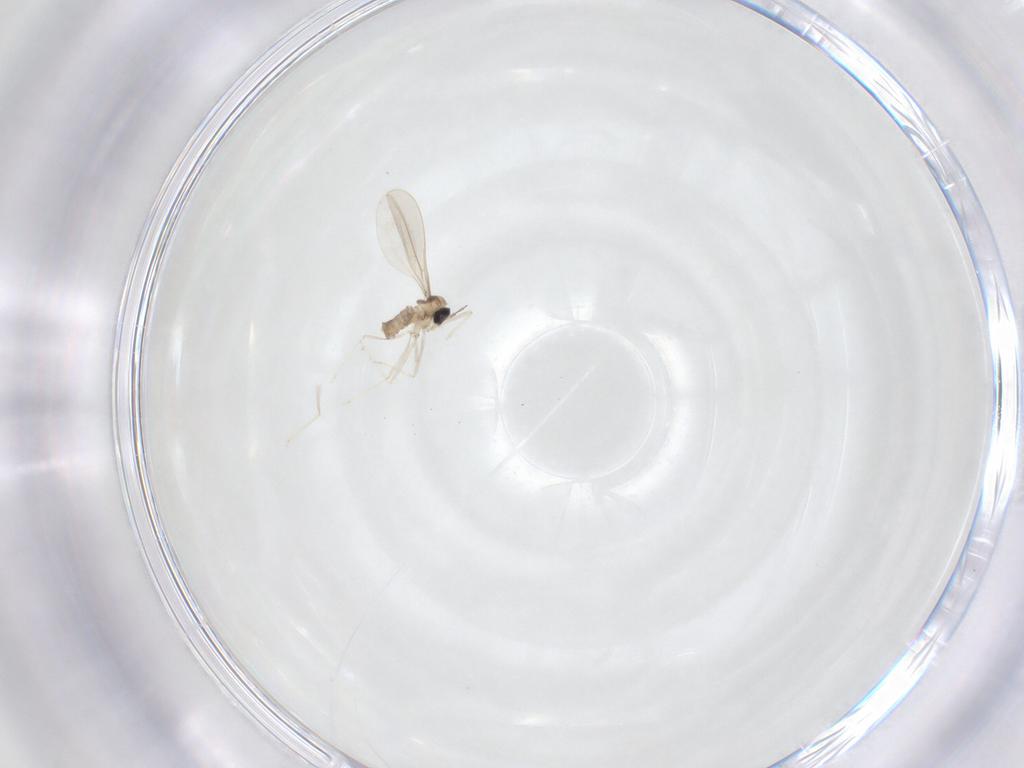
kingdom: Animalia
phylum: Arthropoda
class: Insecta
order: Diptera
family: Cecidomyiidae
